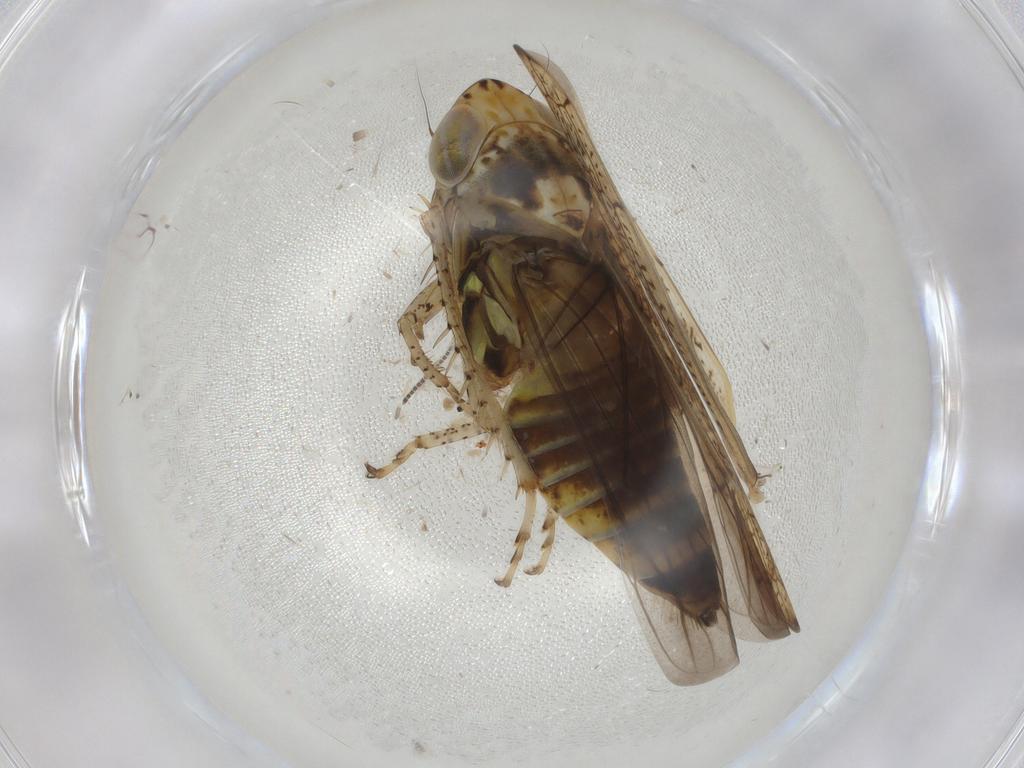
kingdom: Animalia
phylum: Arthropoda
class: Insecta
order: Hemiptera
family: Cicadellidae
